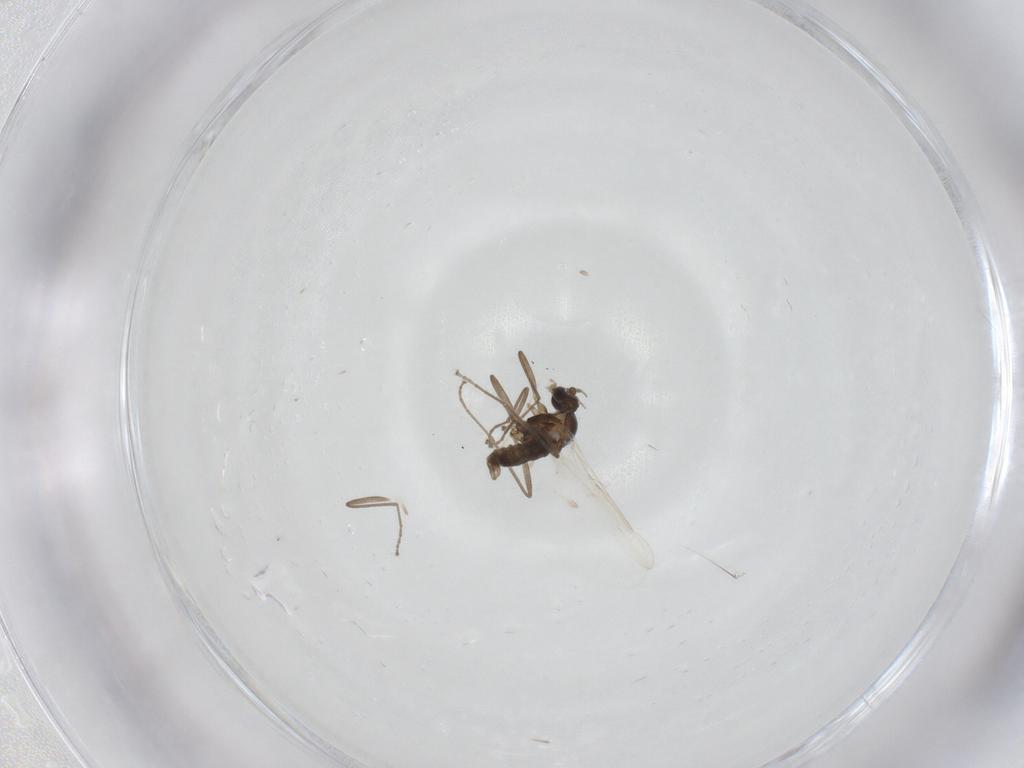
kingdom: Animalia
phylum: Arthropoda
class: Insecta
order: Diptera
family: Cecidomyiidae
